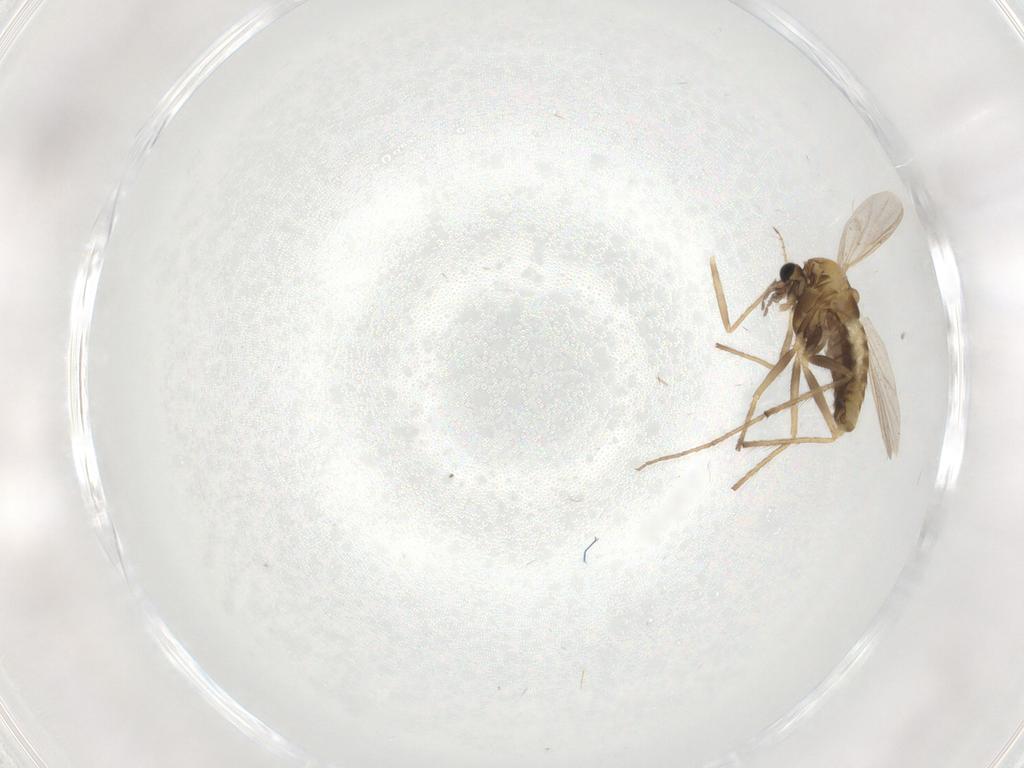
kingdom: Animalia
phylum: Arthropoda
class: Insecta
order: Diptera
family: Chironomidae
